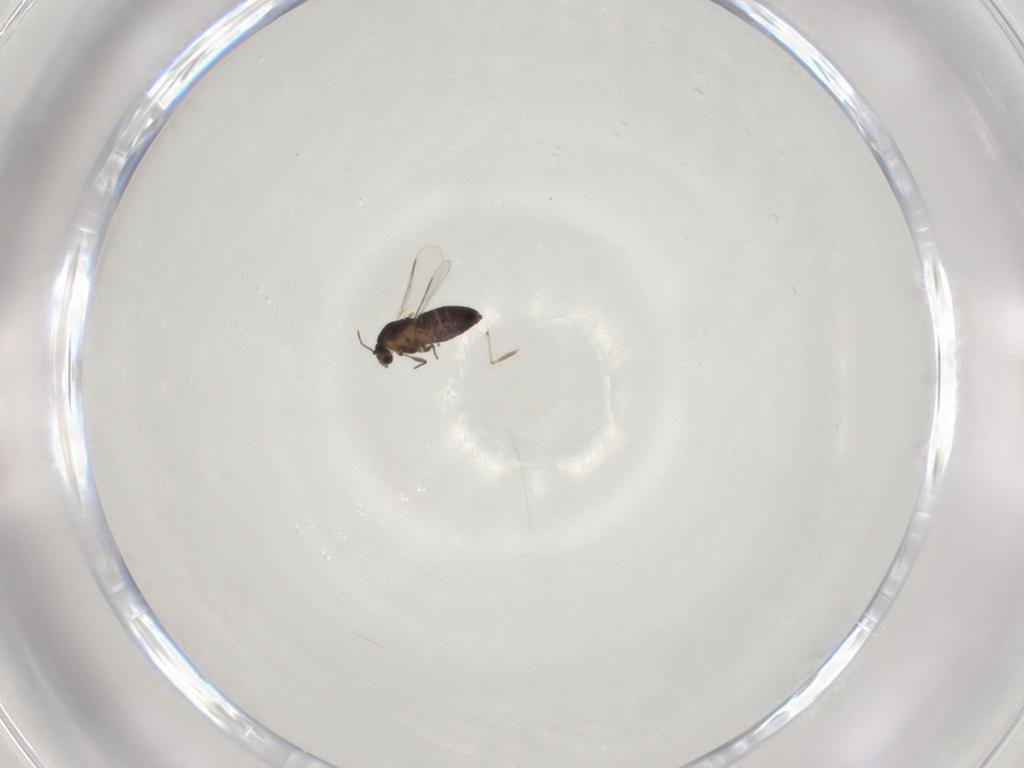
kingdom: Animalia
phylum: Arthropoda
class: Insecta
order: Diptera
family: Chironomidae
